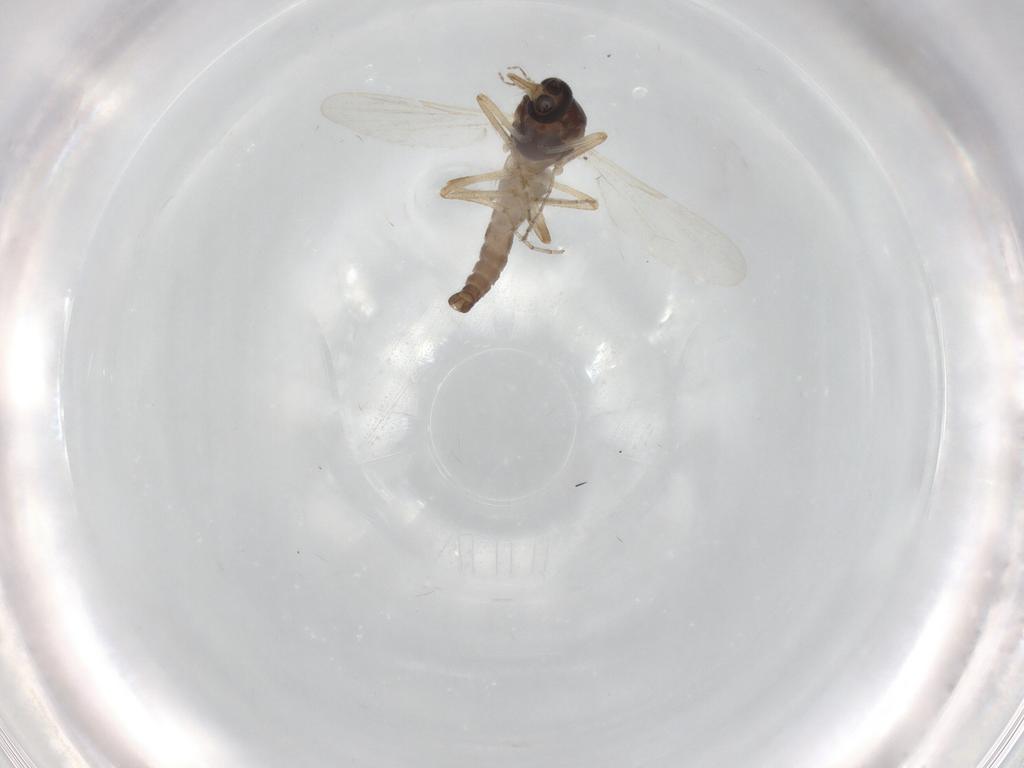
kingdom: Animalia
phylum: Arthropoda
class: Insecta
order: Diptera
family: Ceratopogonidae
